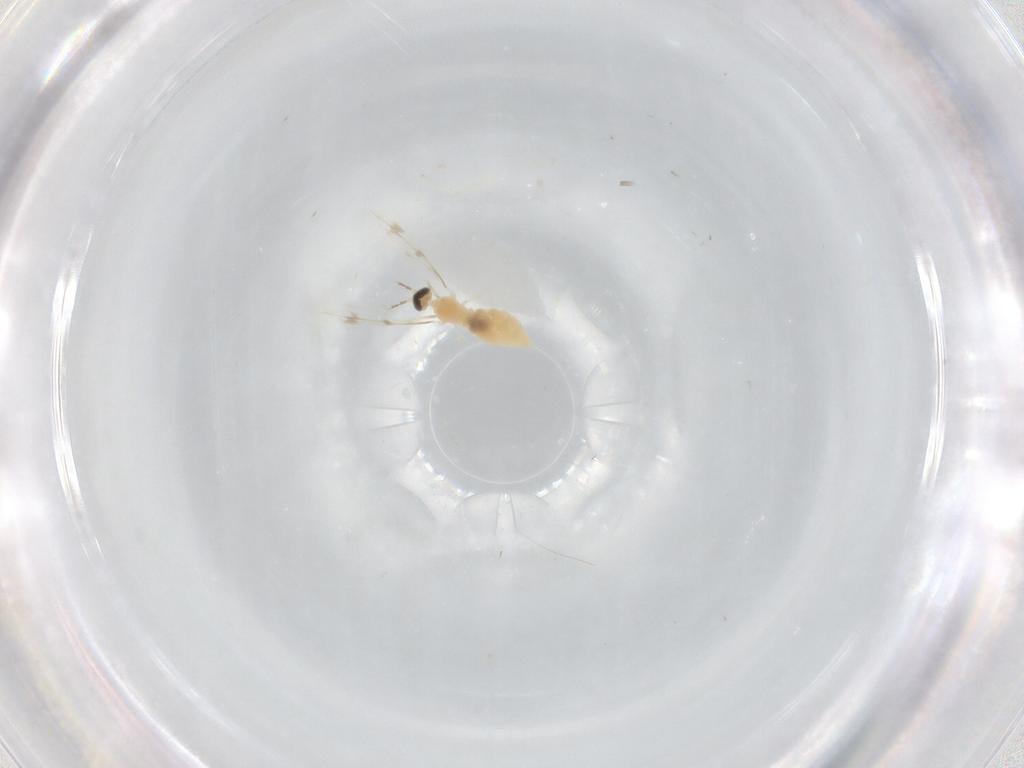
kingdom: Animalia
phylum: Arthropoda
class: Insecta
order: Diptera
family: Cecidomyiidae
